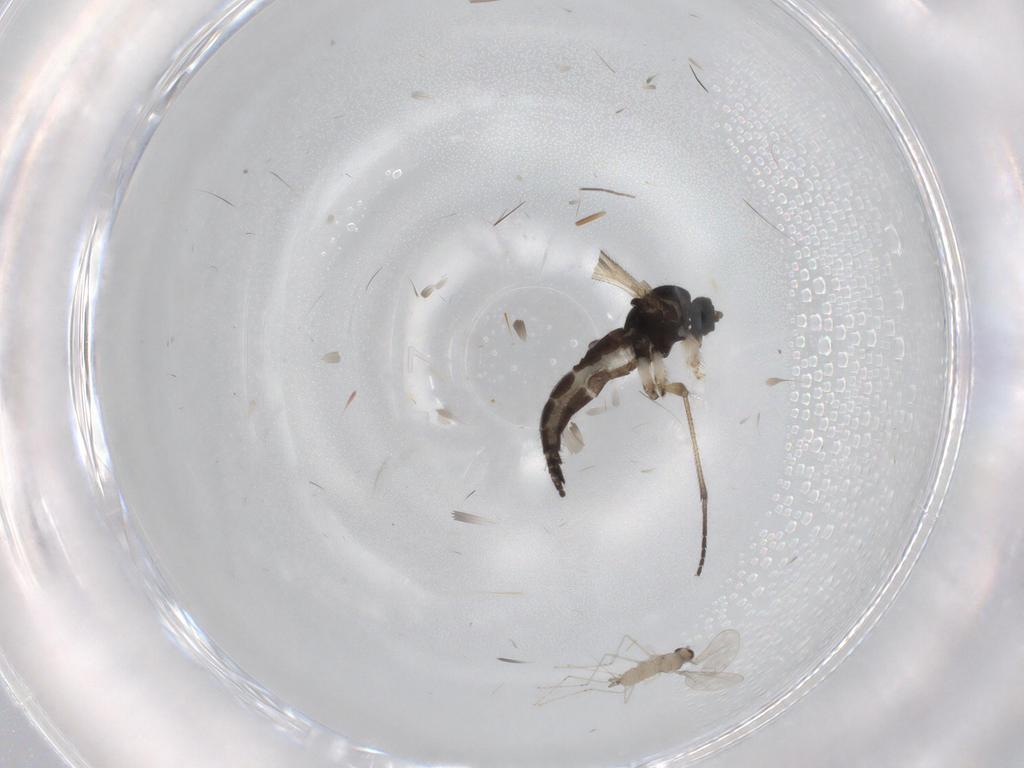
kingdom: Animalia
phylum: Arthropoda
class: Insecta
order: Diptera
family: Sciaridae
